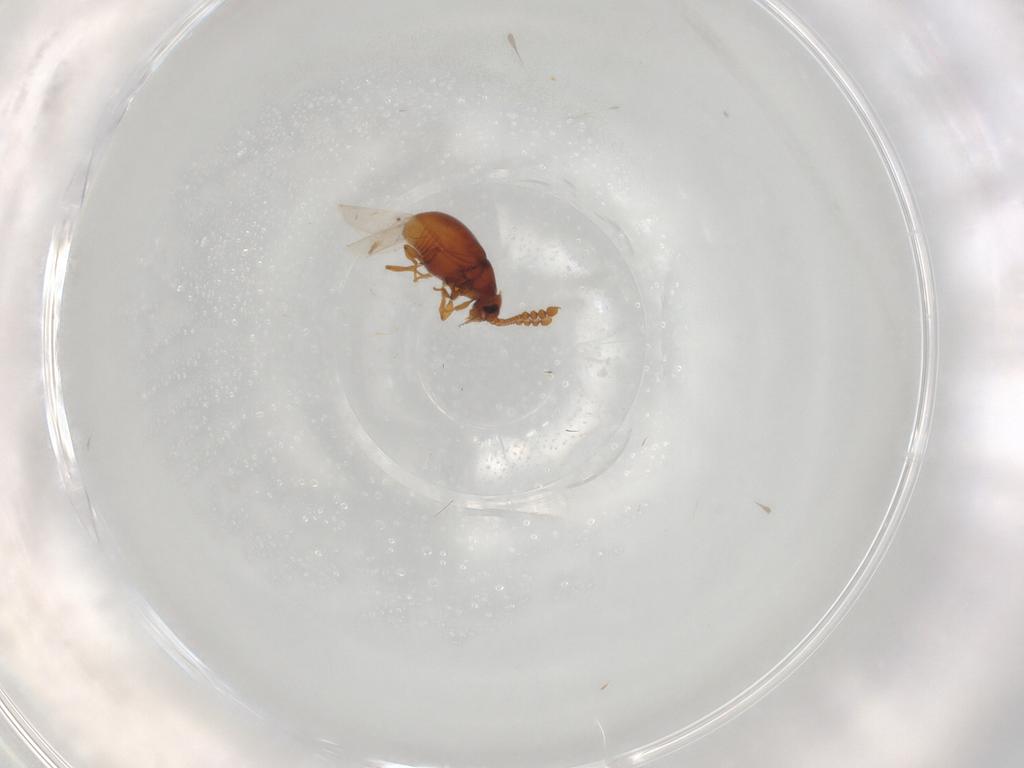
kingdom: Animalia
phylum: Arthropoda
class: Insecta
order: Coleoptera
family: Staphylinidae
